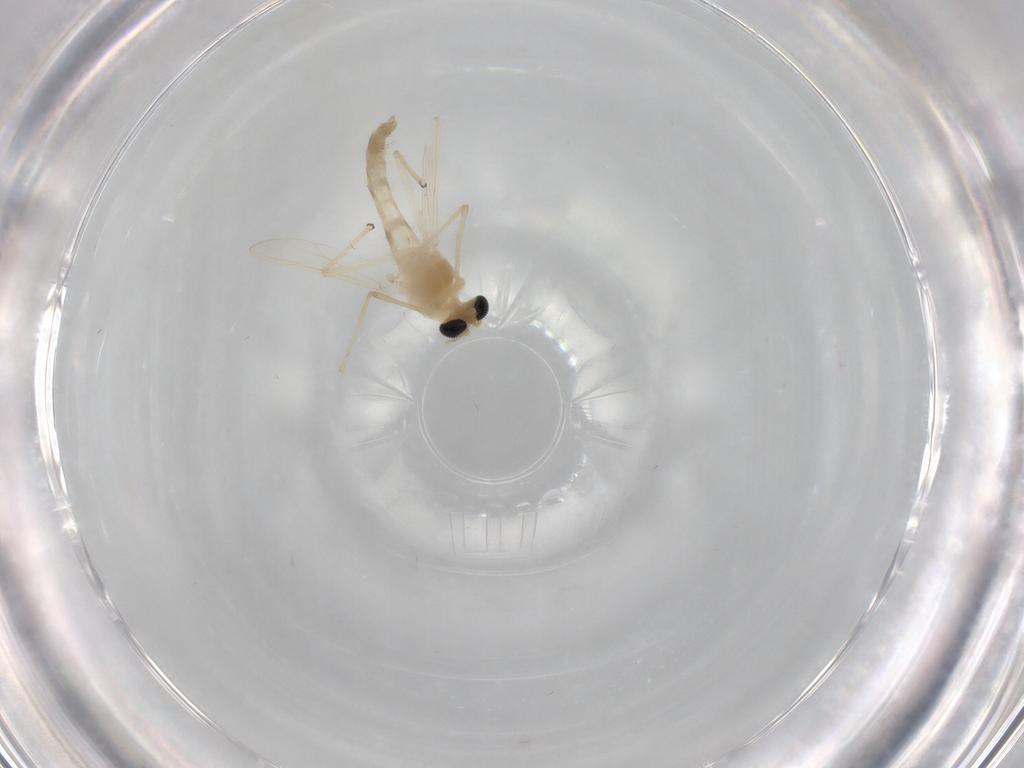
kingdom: Animalia
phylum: Arthropoda
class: Insecta
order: Diptera
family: Chironomidae
